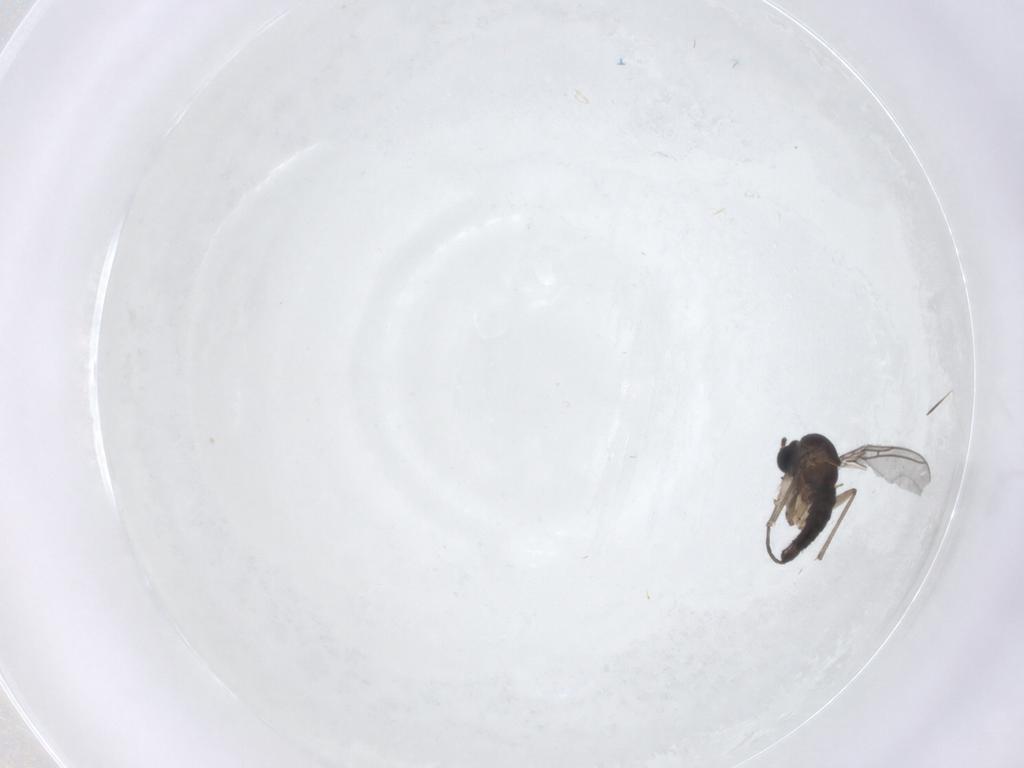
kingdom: Animalia
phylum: Arthropoda
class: Insecta
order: Diptera
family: Sciaridae
